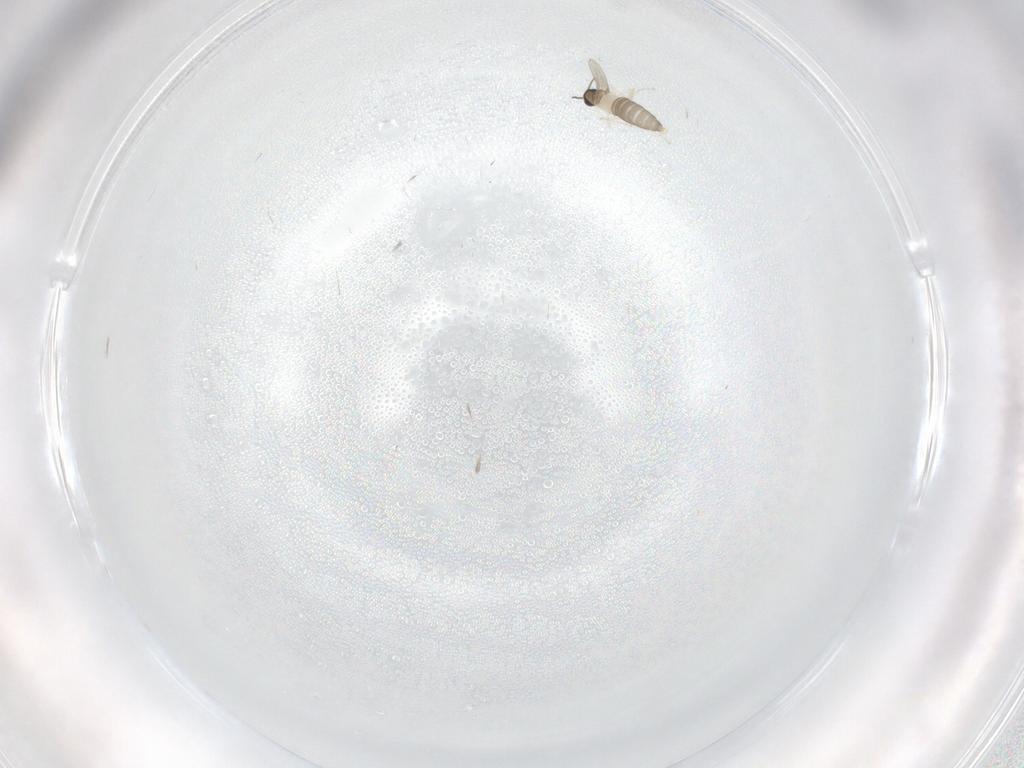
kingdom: Animalia
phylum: Arthropoda
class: Insecta
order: Diptera
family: Cecidomyiidae
